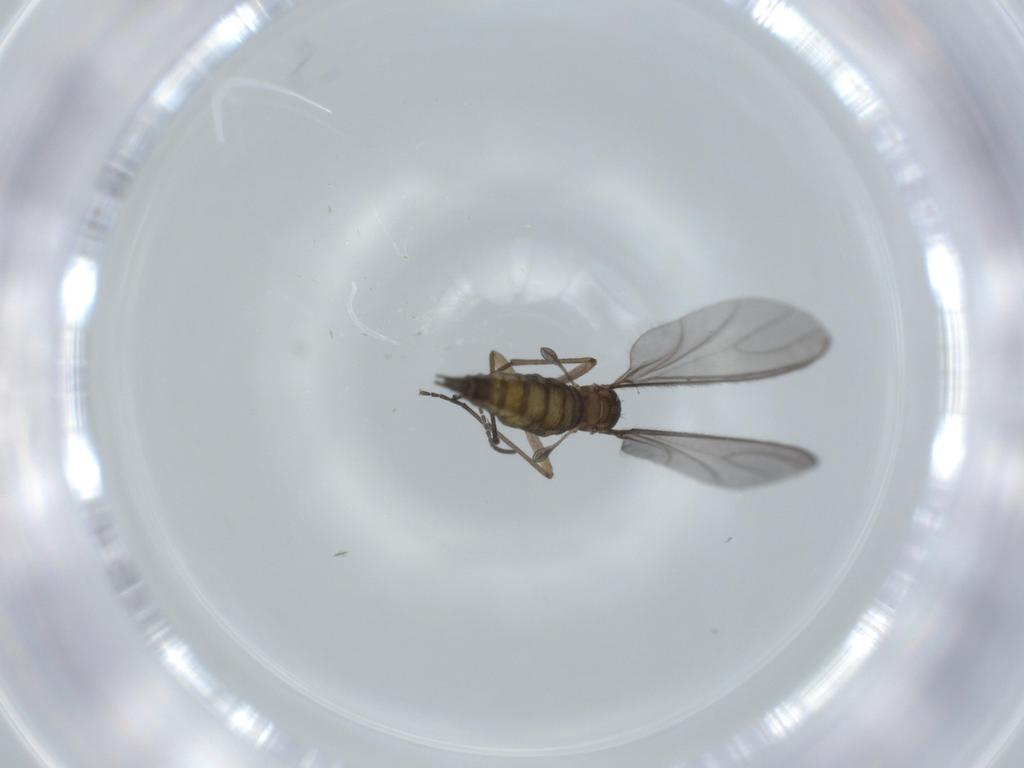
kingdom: Animalia
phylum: Arthropoda
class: Insecta
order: Diptera
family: Sciaridae
